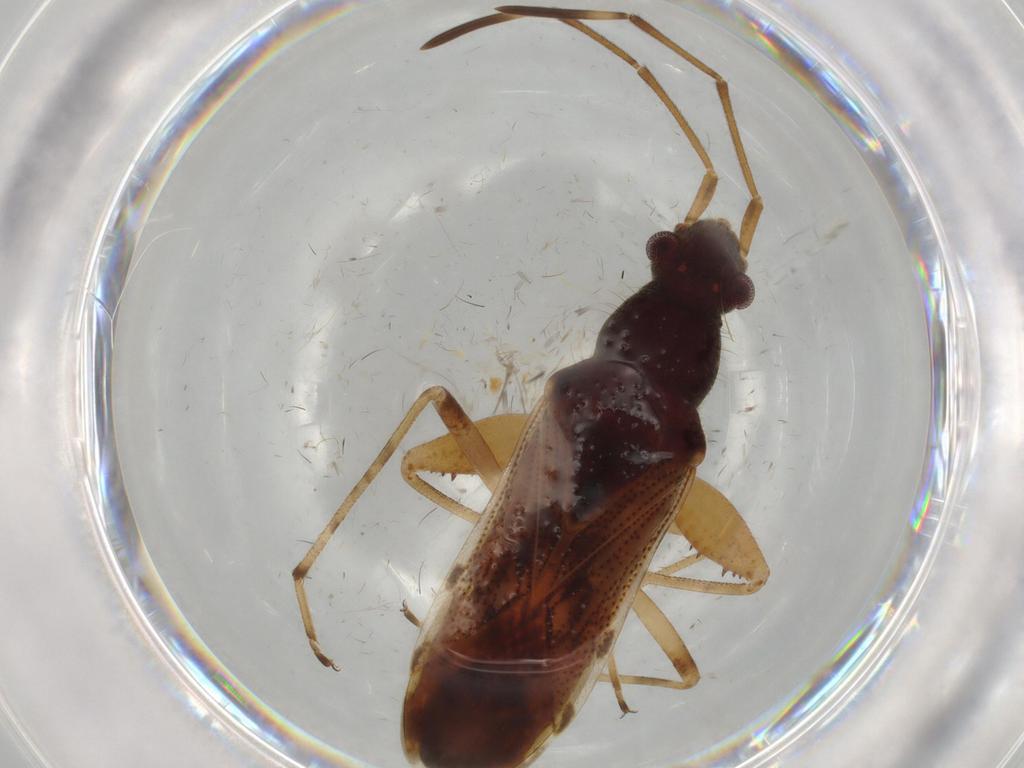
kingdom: Animalia
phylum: Arthropoda
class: Insecta
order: Hemiptera
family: Rhyparochromidae
